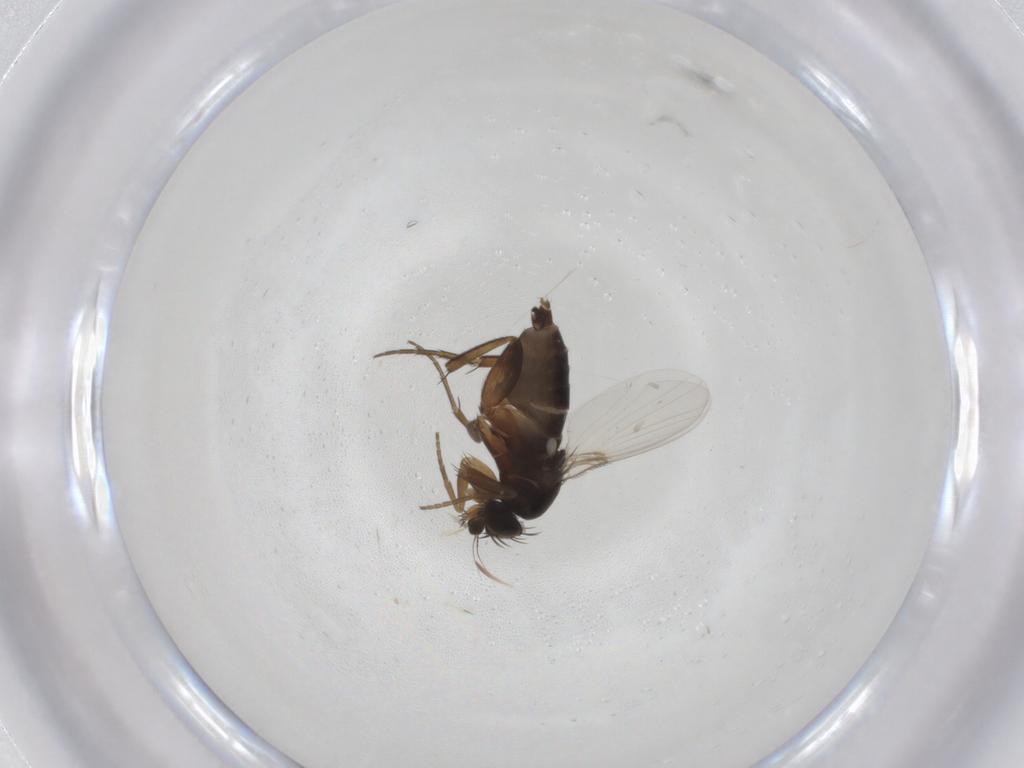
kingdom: Animalia
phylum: Arthropoda
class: Insecta
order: Diptera
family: Phoridae
